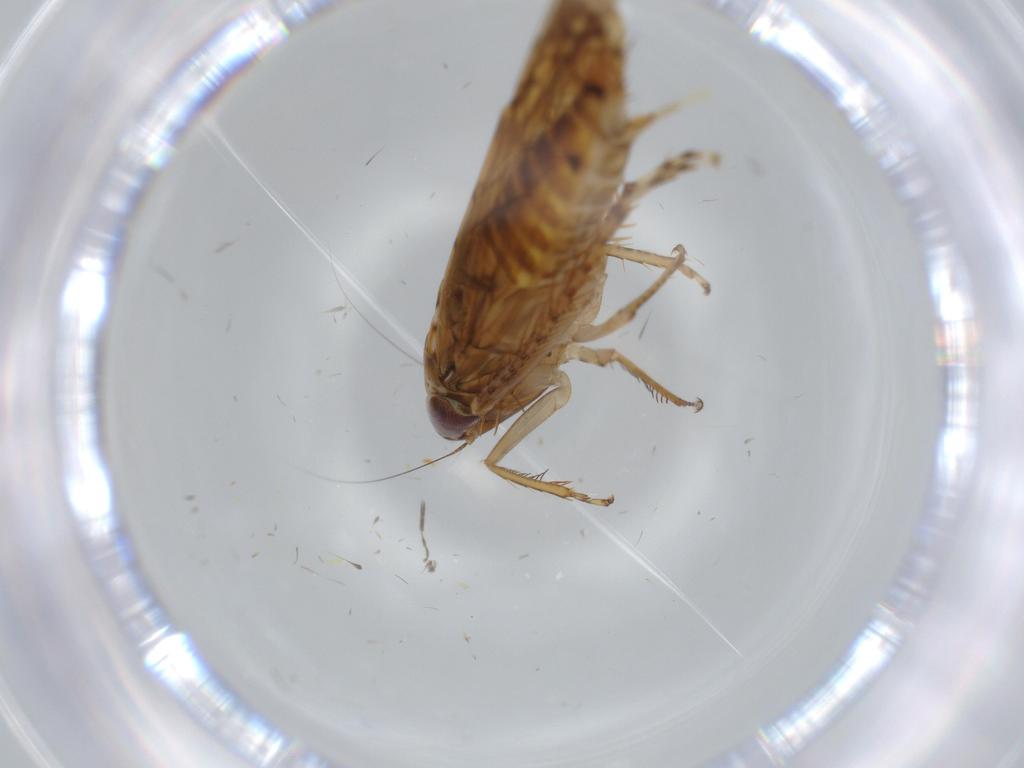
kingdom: Animalia
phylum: Arthropoda
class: Insecta
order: Hemiptera
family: Cicadellidae
